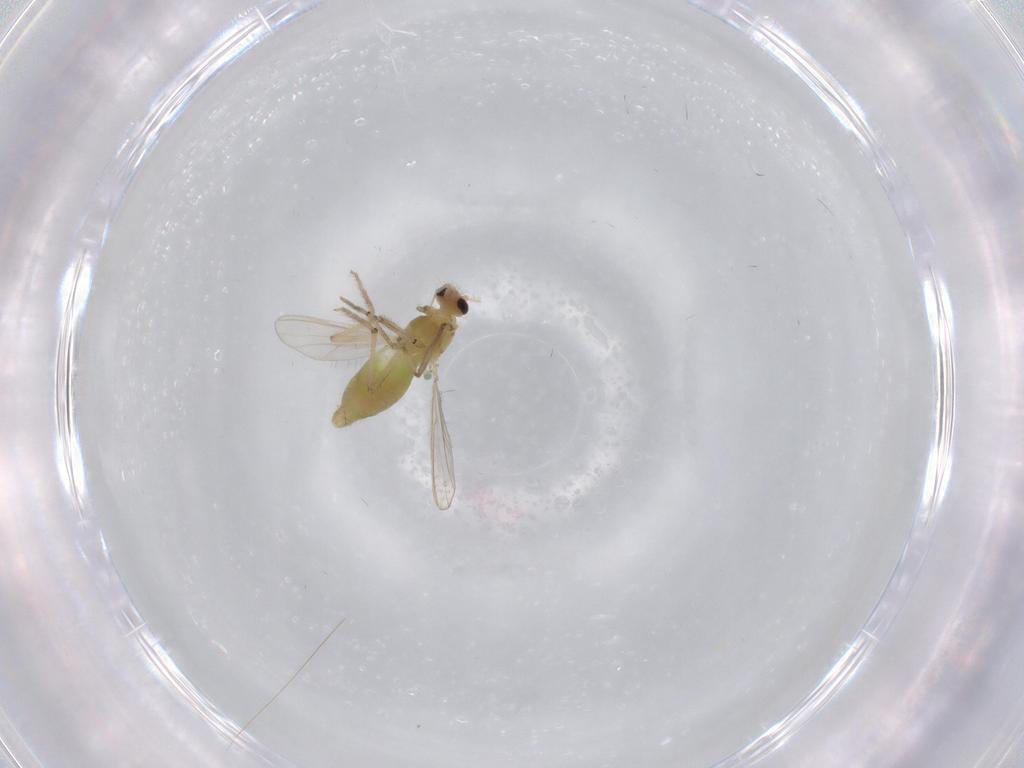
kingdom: Animalia
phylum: Arthropoda
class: Insecta
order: Diptera
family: Chironomidae
